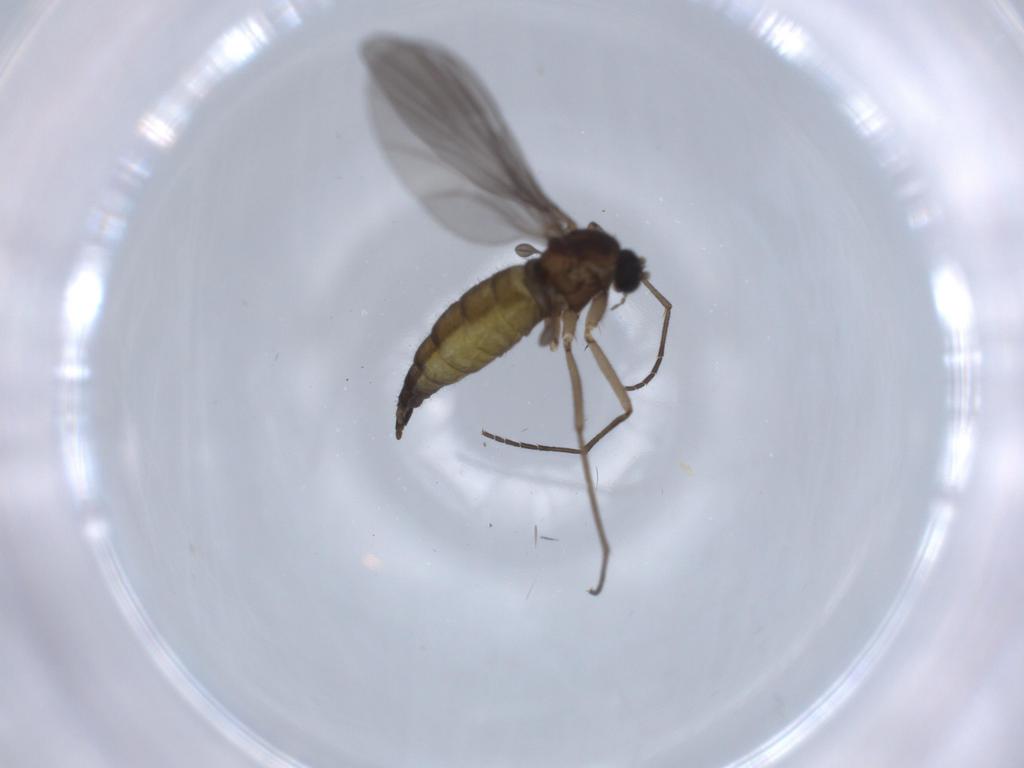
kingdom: Animalia
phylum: Arthropoda
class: Insecta
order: Diptera
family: Sciaridae
